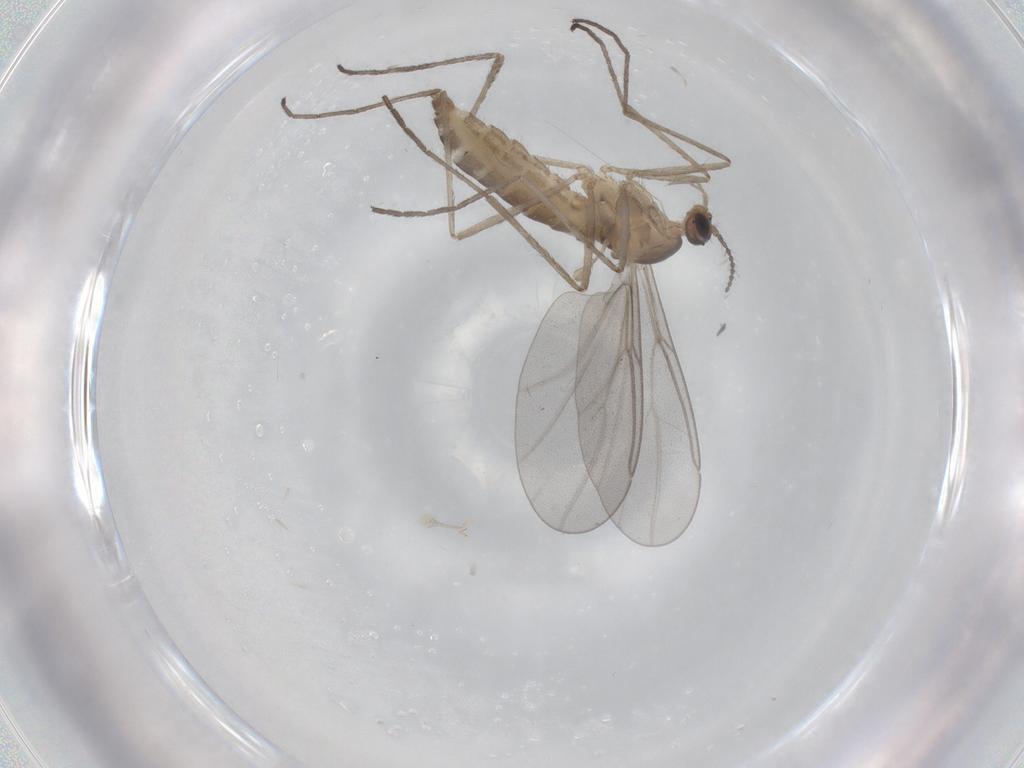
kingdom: Animalia
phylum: Arthropoda
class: Insecta
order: Diptera
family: Cecidomyiidae
